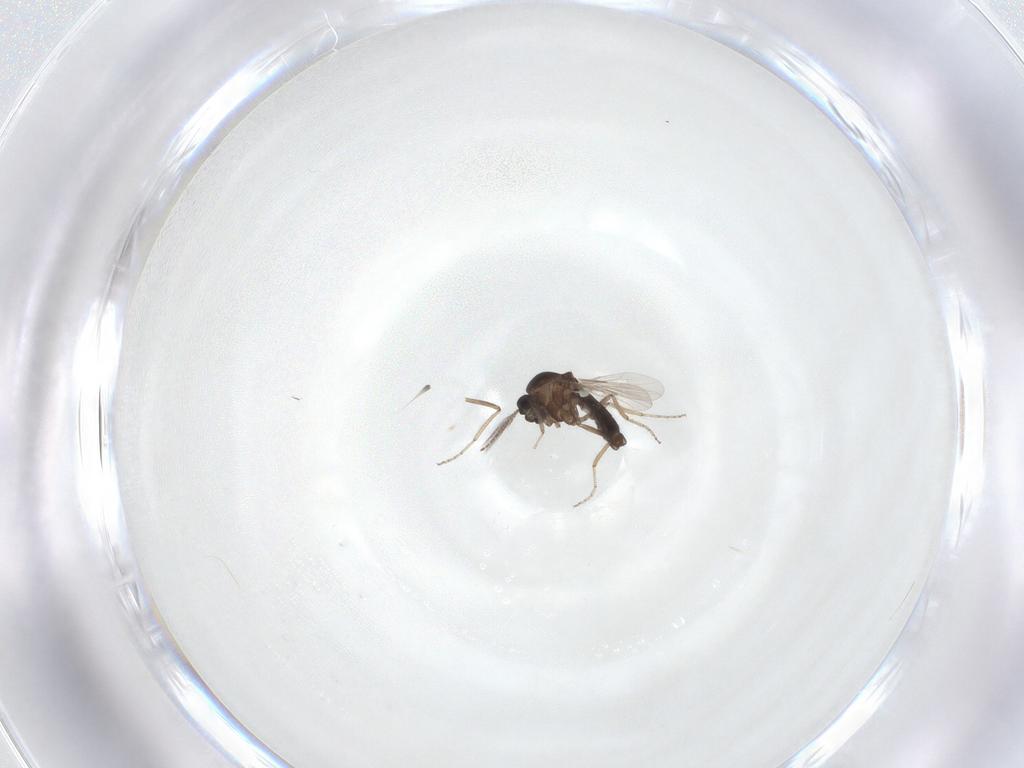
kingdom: Animalia
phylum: Arthropoda
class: Insecta
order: Diptera
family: Ceratopogonidae
